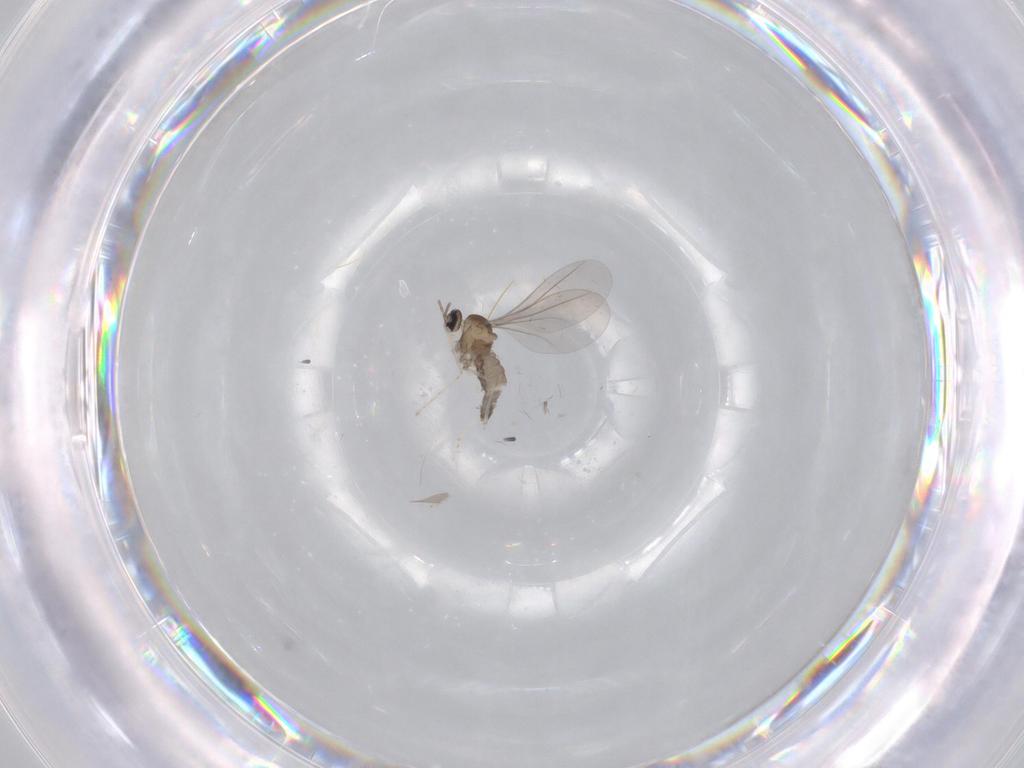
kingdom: Animalia
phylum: Arthropoda
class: Insecta
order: Diptera
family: Cecidomyiidae
